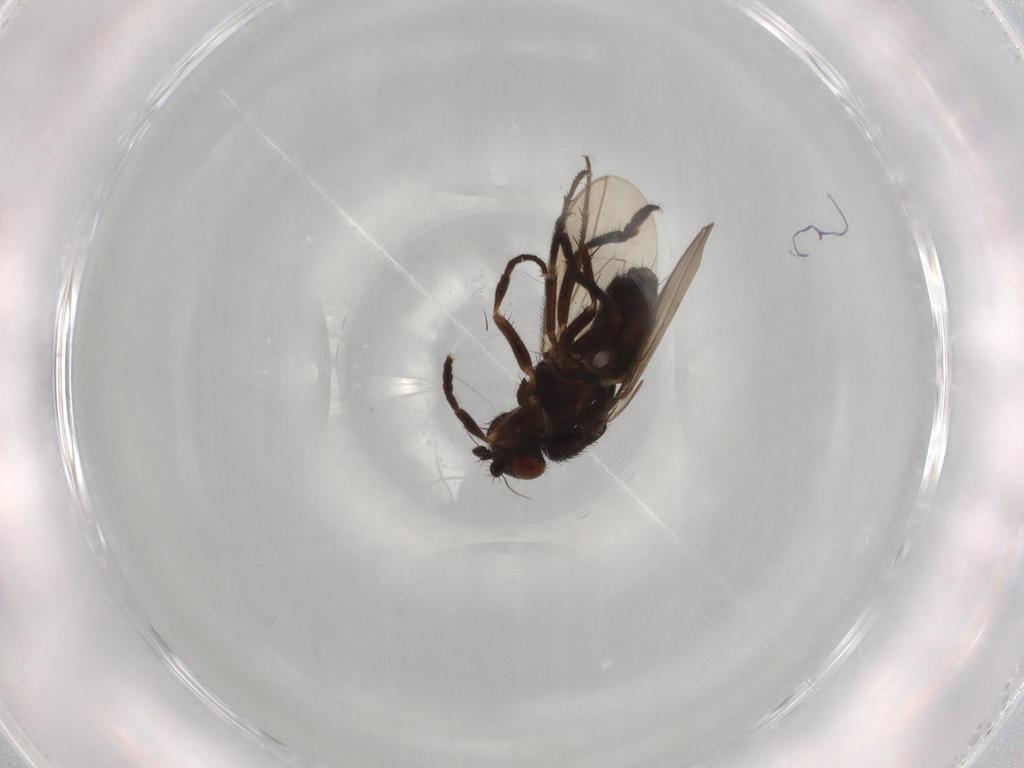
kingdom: Animalia
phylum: Arthropoda
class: Insecta
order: Diptera
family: Sphaeroceridae
